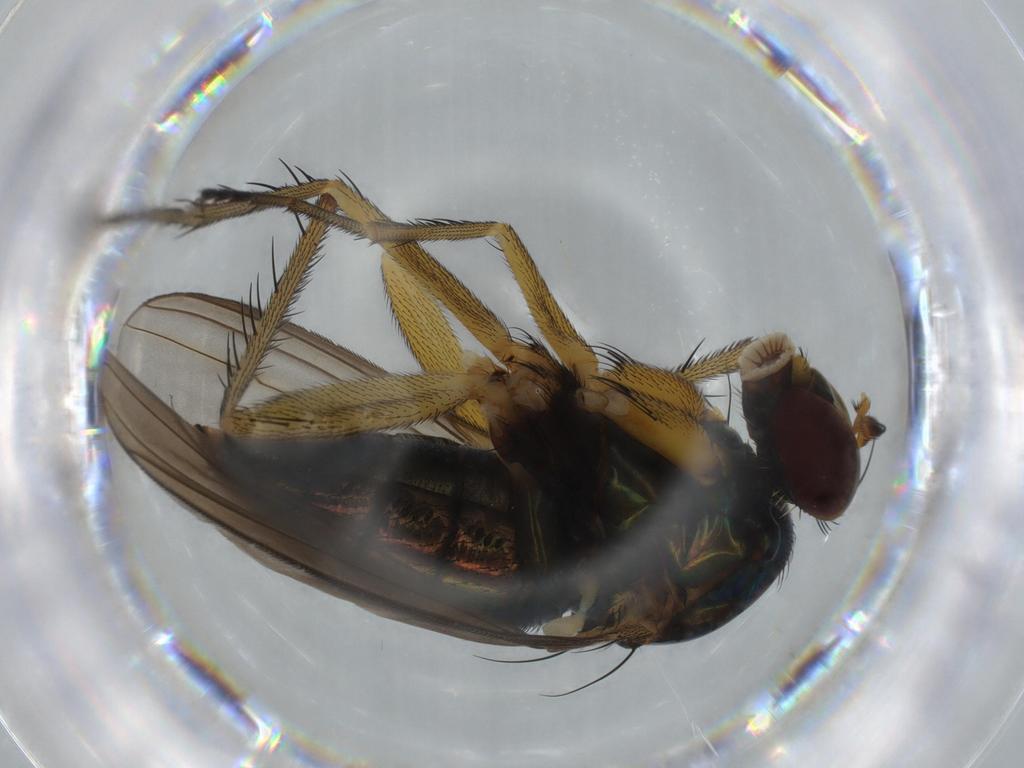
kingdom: Animalia
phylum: Arthropoda
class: Insecta
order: Diptera
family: Dolichopodidae
